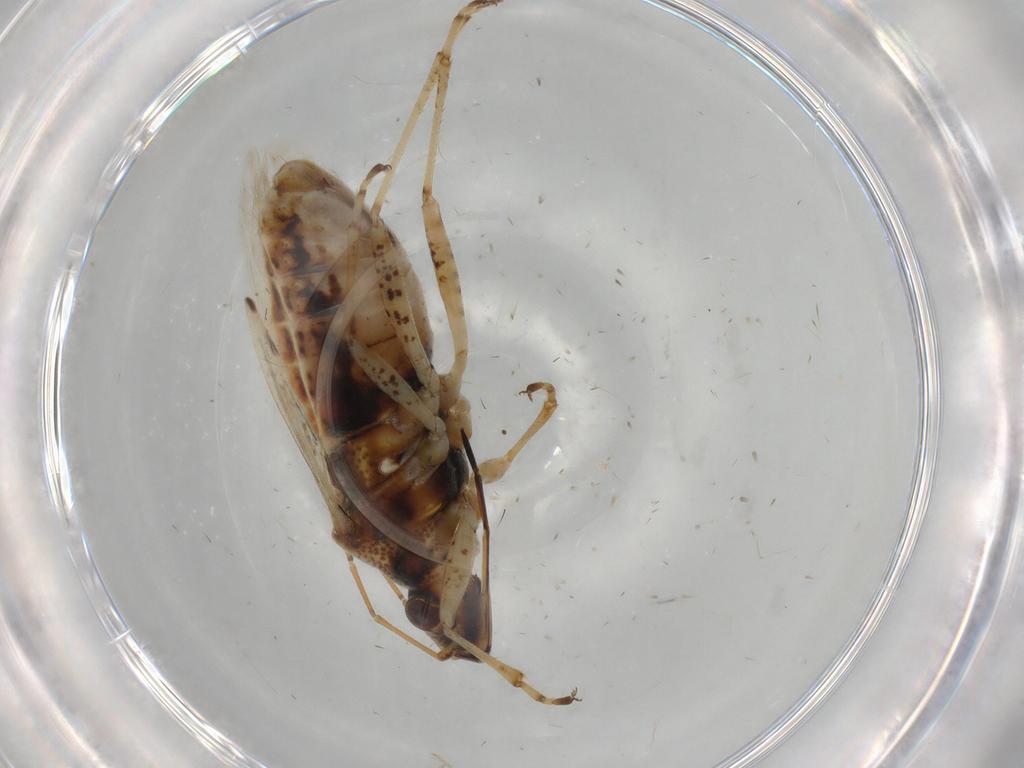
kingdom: Animalia
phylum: Arthropoda
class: Insecta
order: Hemiptera
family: Lygaeidae
